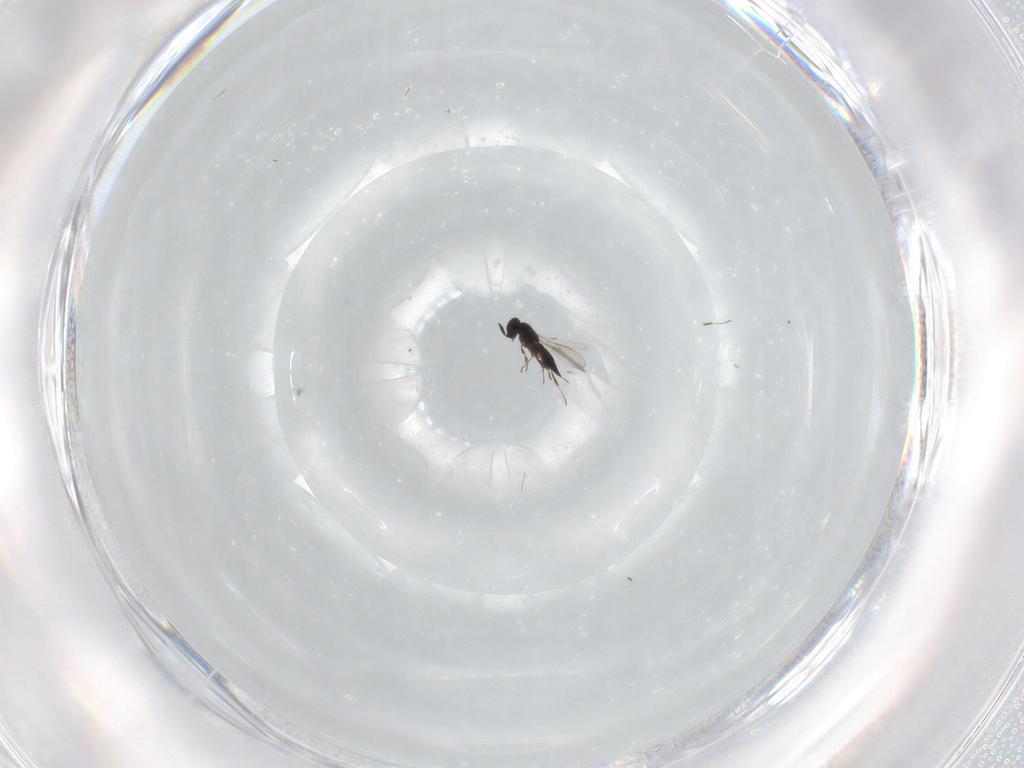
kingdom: Animalia
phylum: Arthropoda
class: Insecta
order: Hymenoptera
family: Scelionidae
